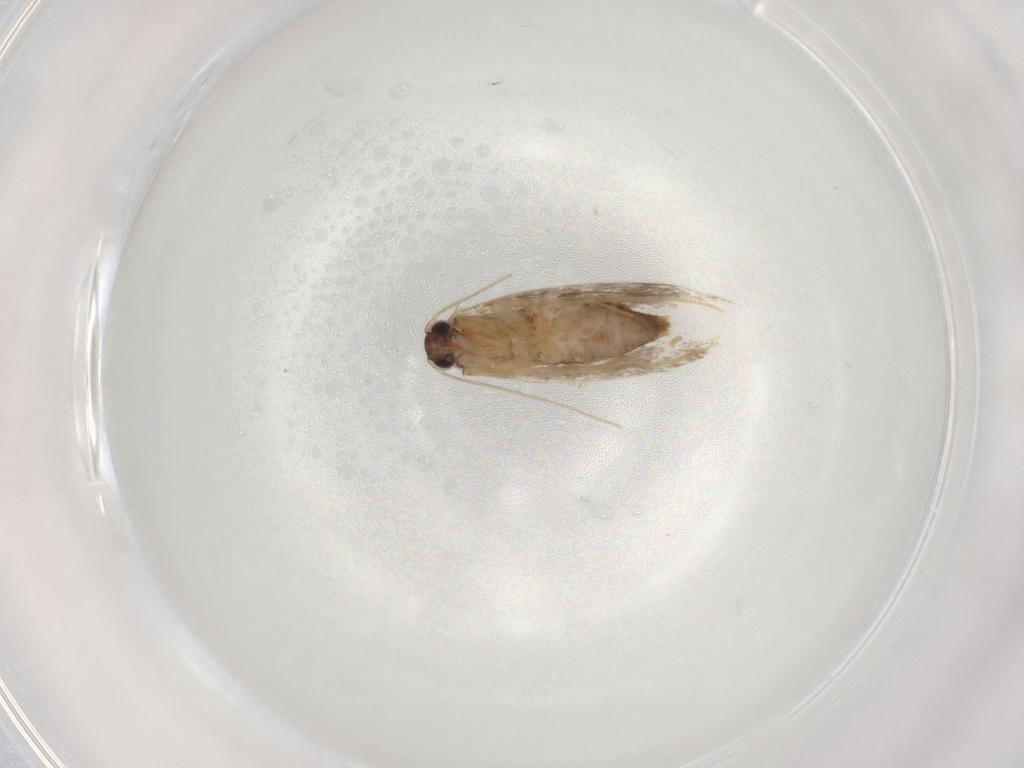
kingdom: Animalia
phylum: Arthropoda
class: Insecta
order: Lepidoptera
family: Tineidae
